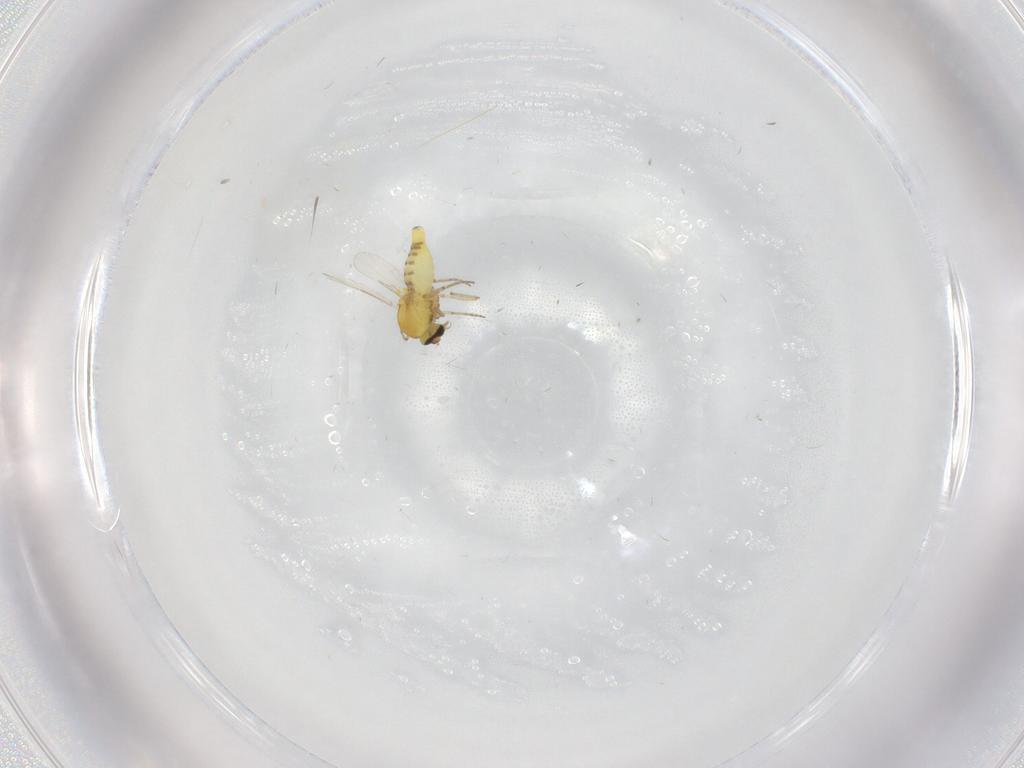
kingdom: Animalia
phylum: Arthropoda
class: Insecta
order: Diptera
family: Ceratopogonidae
